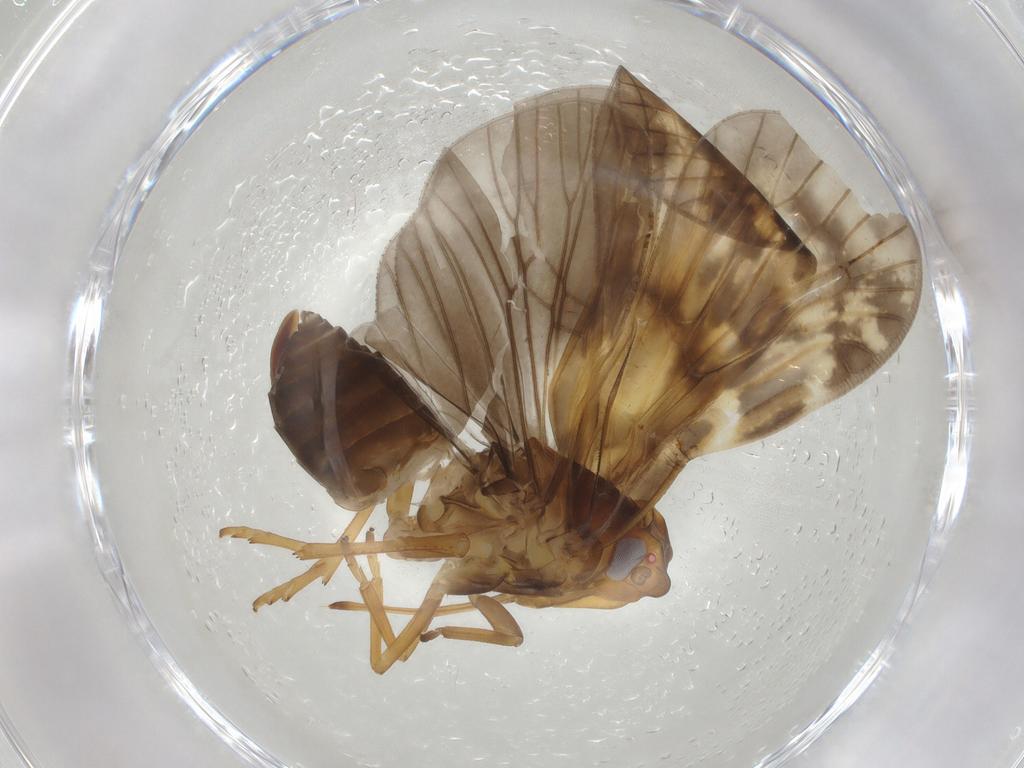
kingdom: Animalia
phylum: Arthropoda
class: Insecta
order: Hemiptera
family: Cixiidae
